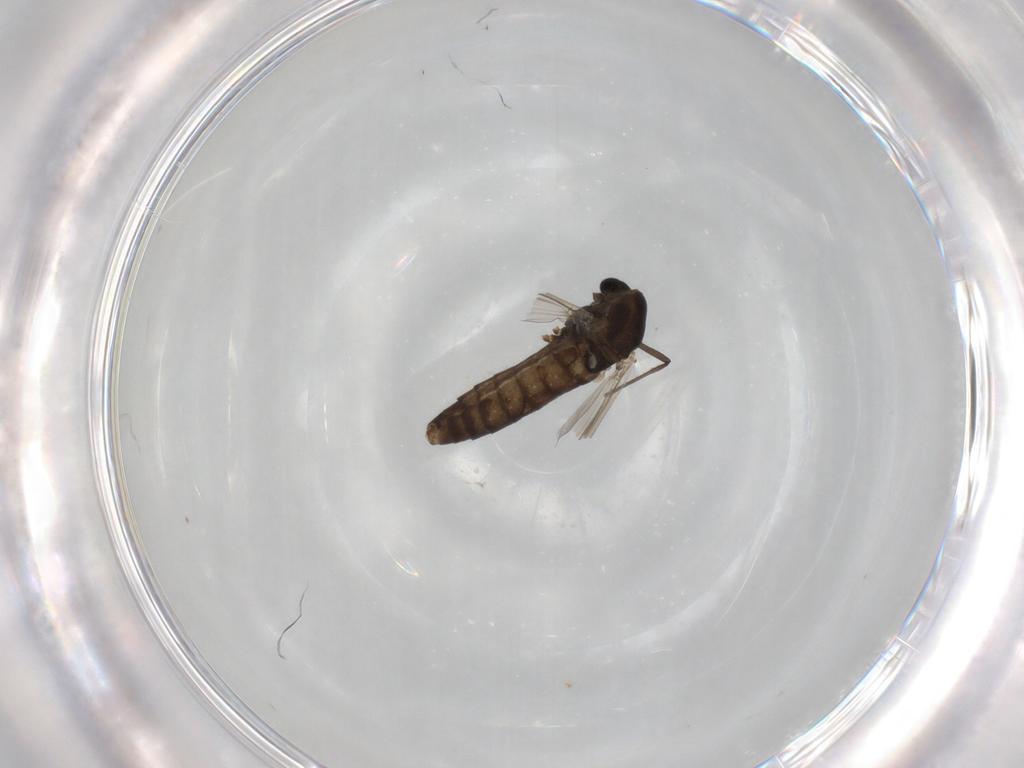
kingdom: Animalia
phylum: Arthropoda
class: Insecta
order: Diptera
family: Chironomidae
